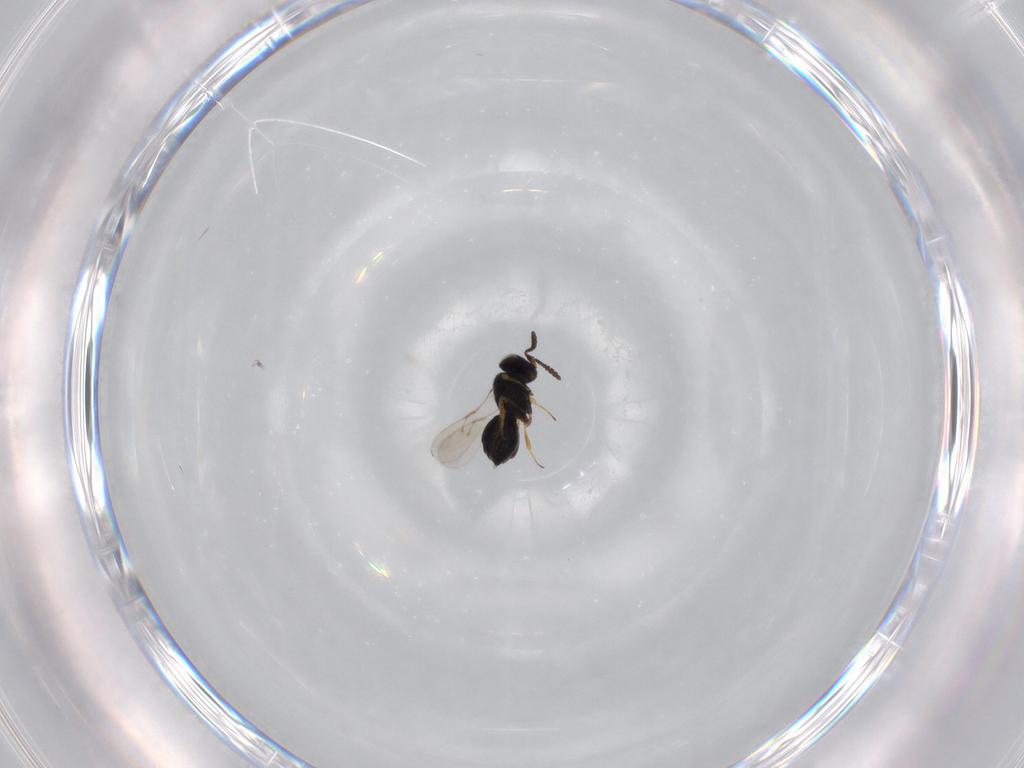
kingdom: Animalia
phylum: Arthropoda
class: Insecta
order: Hymenoptera
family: Scelionidae
